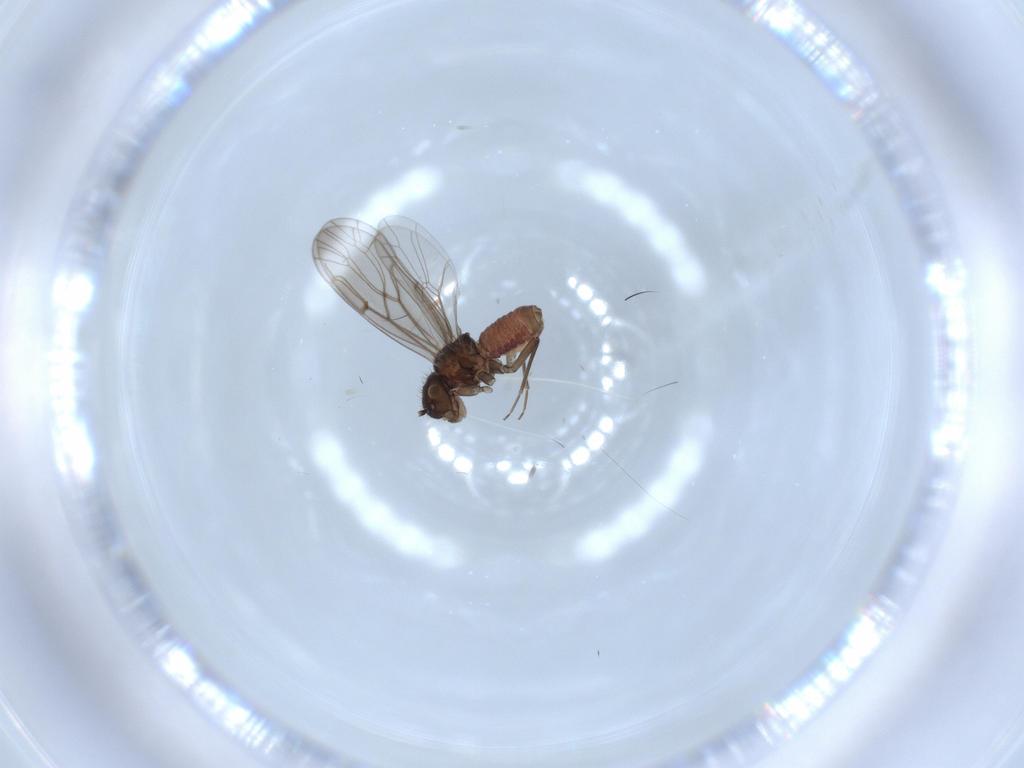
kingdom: Animalia
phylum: Arthropoda
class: Insecta
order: Psocodea
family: Ectopsocidae
